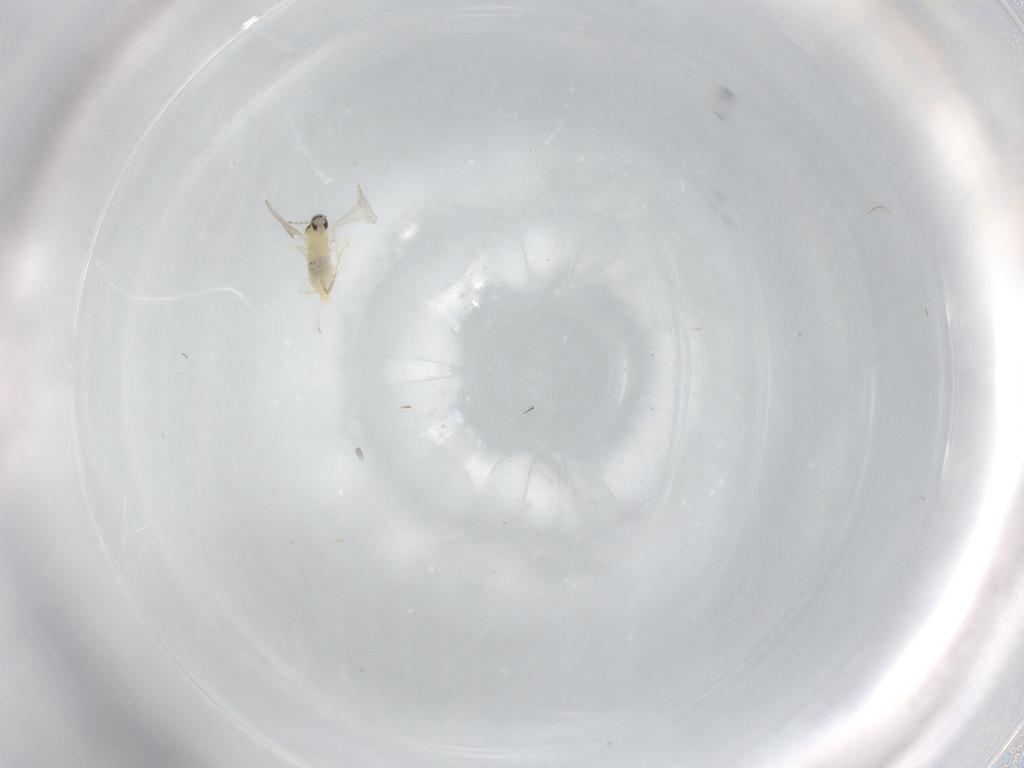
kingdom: Animalia
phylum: Arthropoda
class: Insecta
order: Diptera
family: Cecidomyiidae
